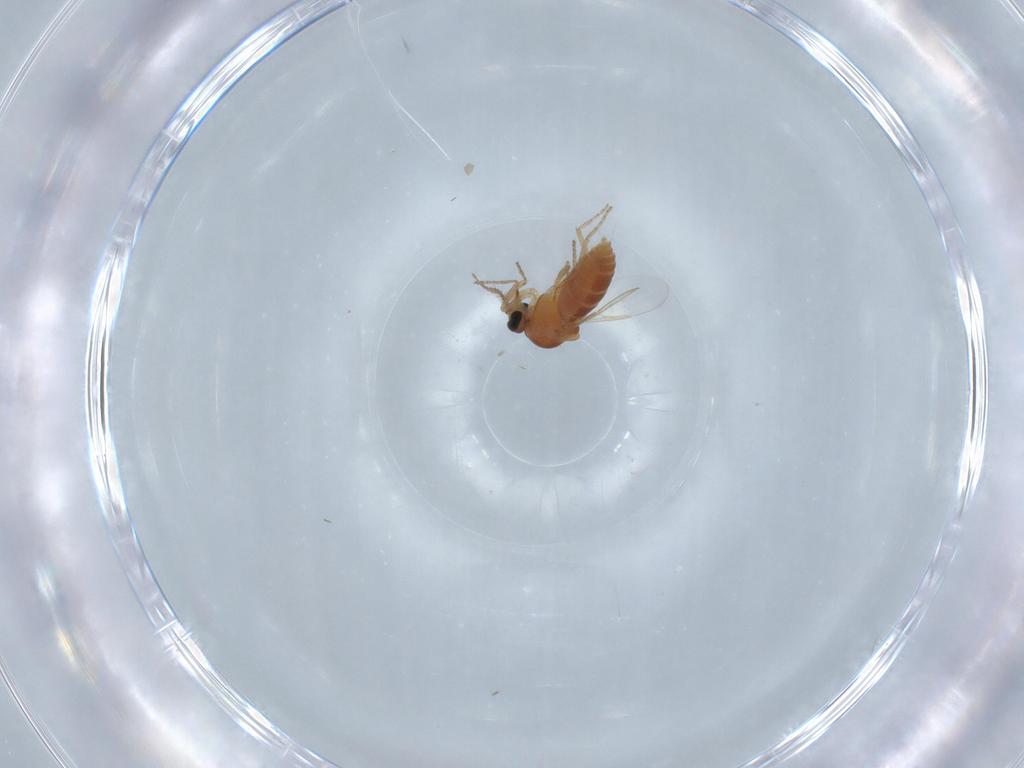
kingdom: Animalia
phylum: Arthropoda
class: Insecta
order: Diptera
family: Ceratopogonidae
